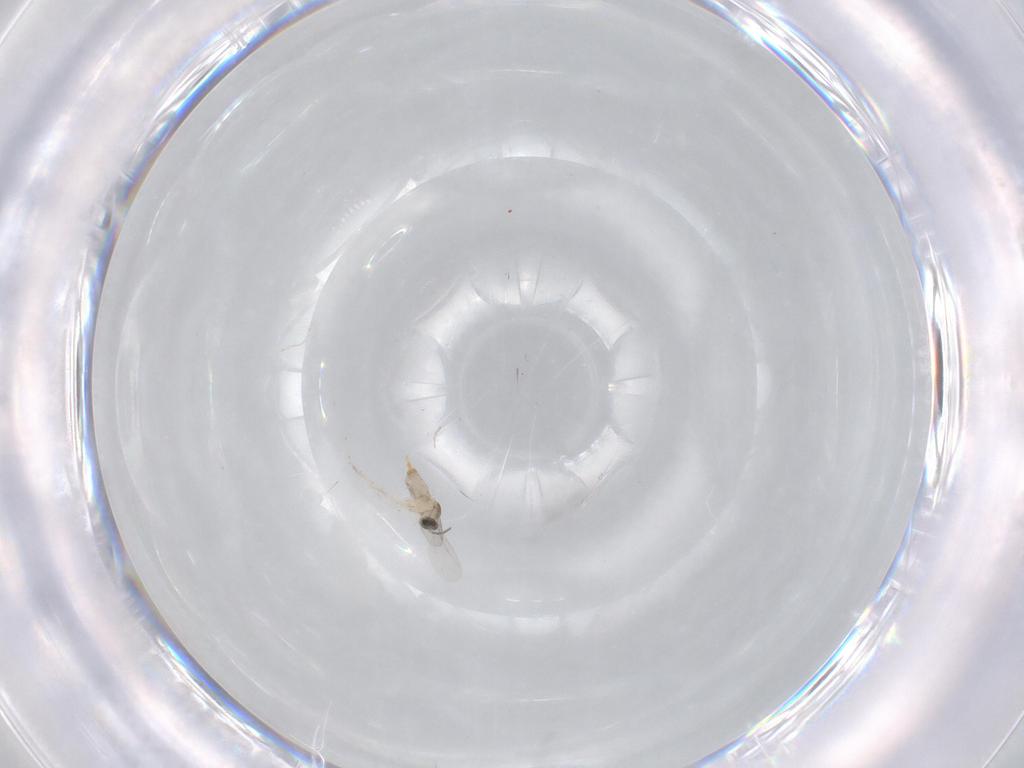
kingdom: Animalia
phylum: Arthropoda
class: Insecta
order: Diptera
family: Cecidomyiidae
